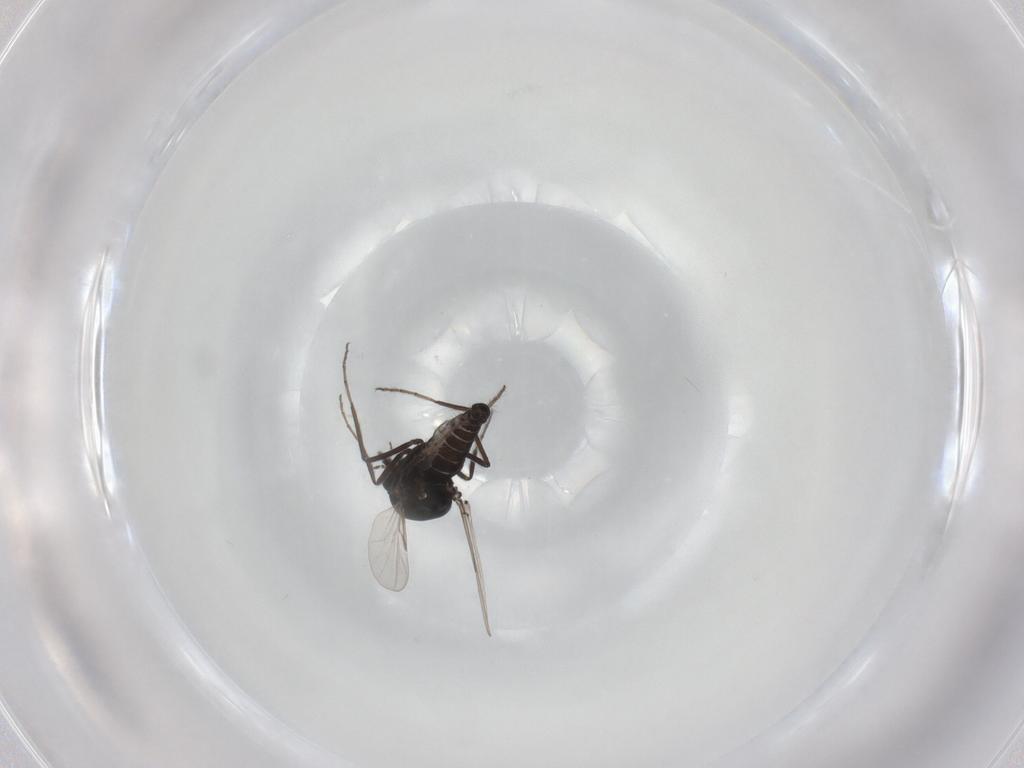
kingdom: Animalia
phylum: Arthropoda
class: Insecta
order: Diptera
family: Ceratopogonidae
